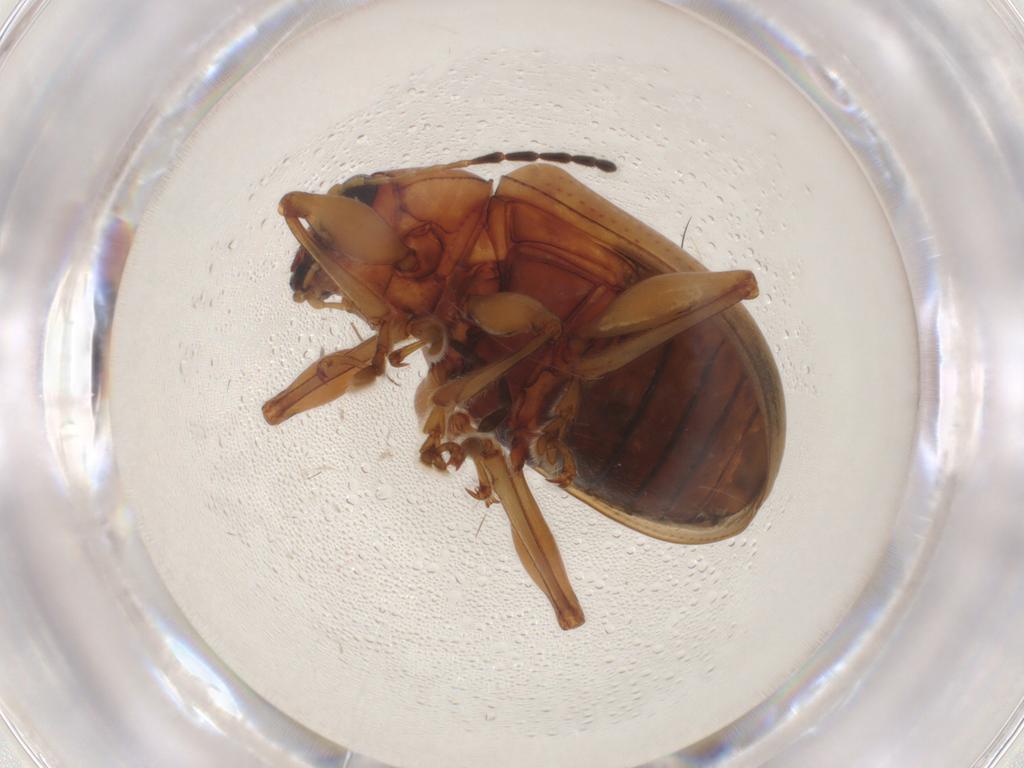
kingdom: Animalia
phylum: Arthropoda
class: Insecta
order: Coleoptera
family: Chrysomelidae
